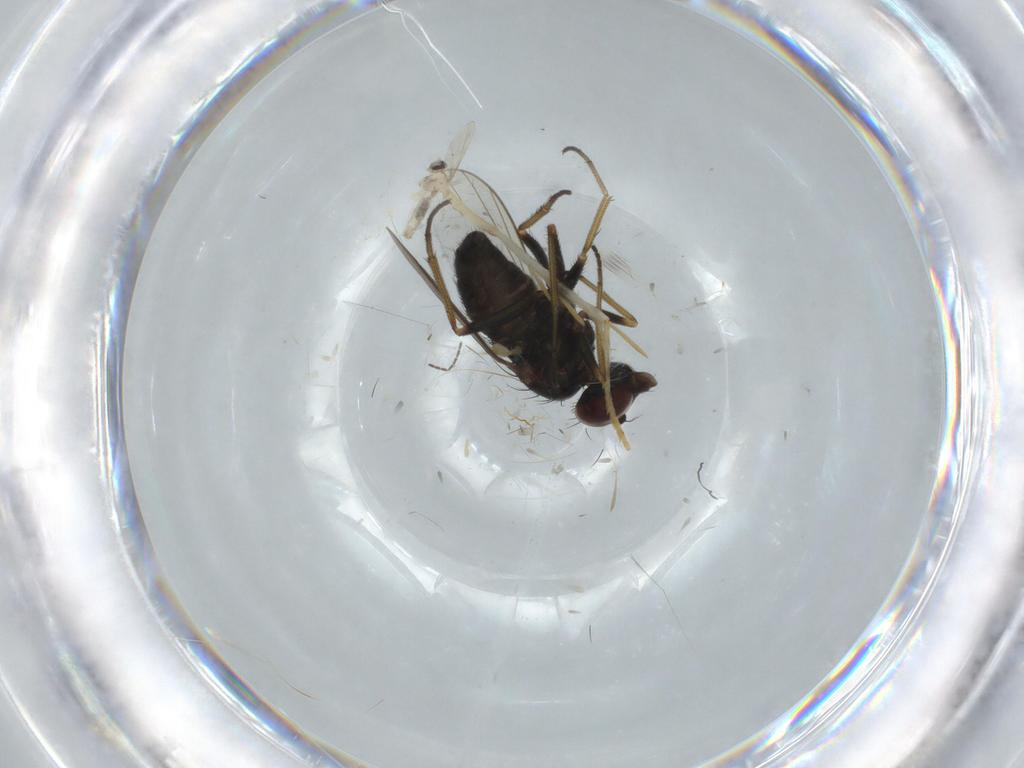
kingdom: Animalia
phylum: Arthropoda
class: Insecta
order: Diptera
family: Dolichopodidae
